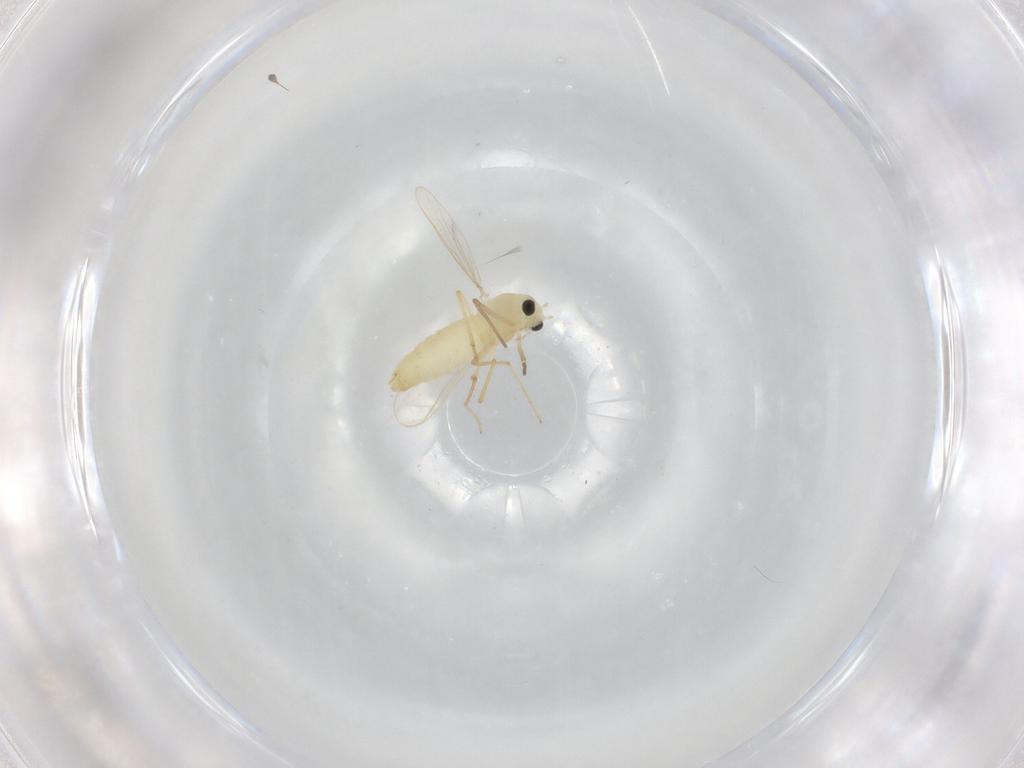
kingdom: Animalia
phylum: Arthropoda
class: Insecta
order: Diptera
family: Chironomidae
